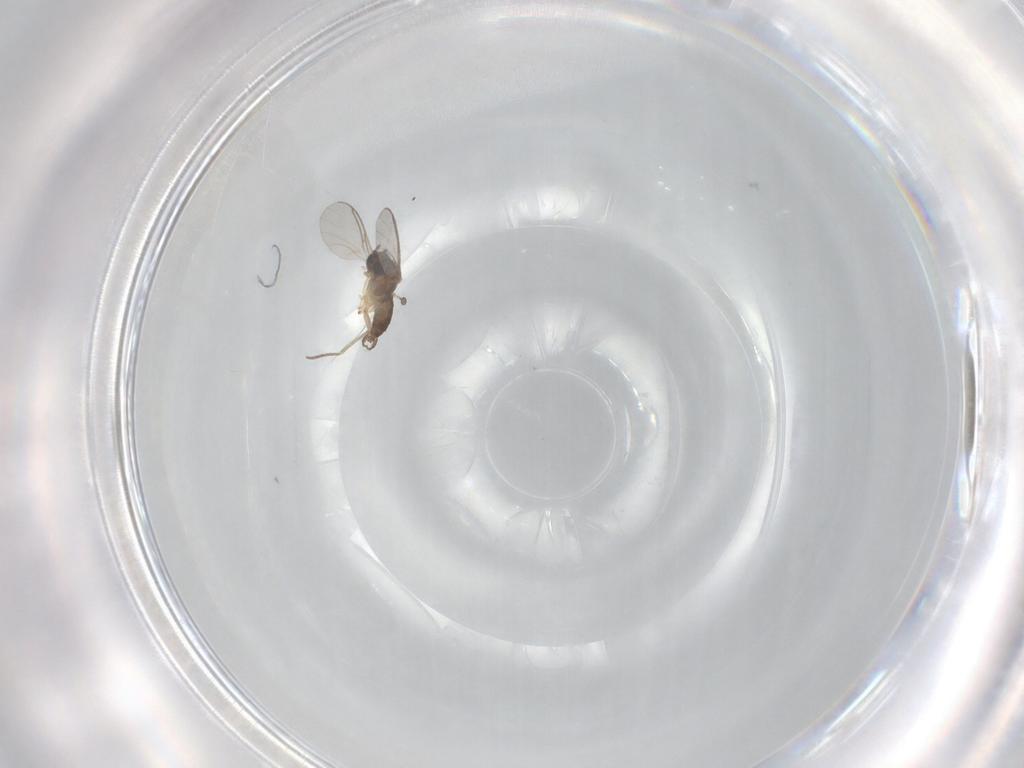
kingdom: Animalia
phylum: Arthropoda
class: Insecta
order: Diptera
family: Sciaridae
